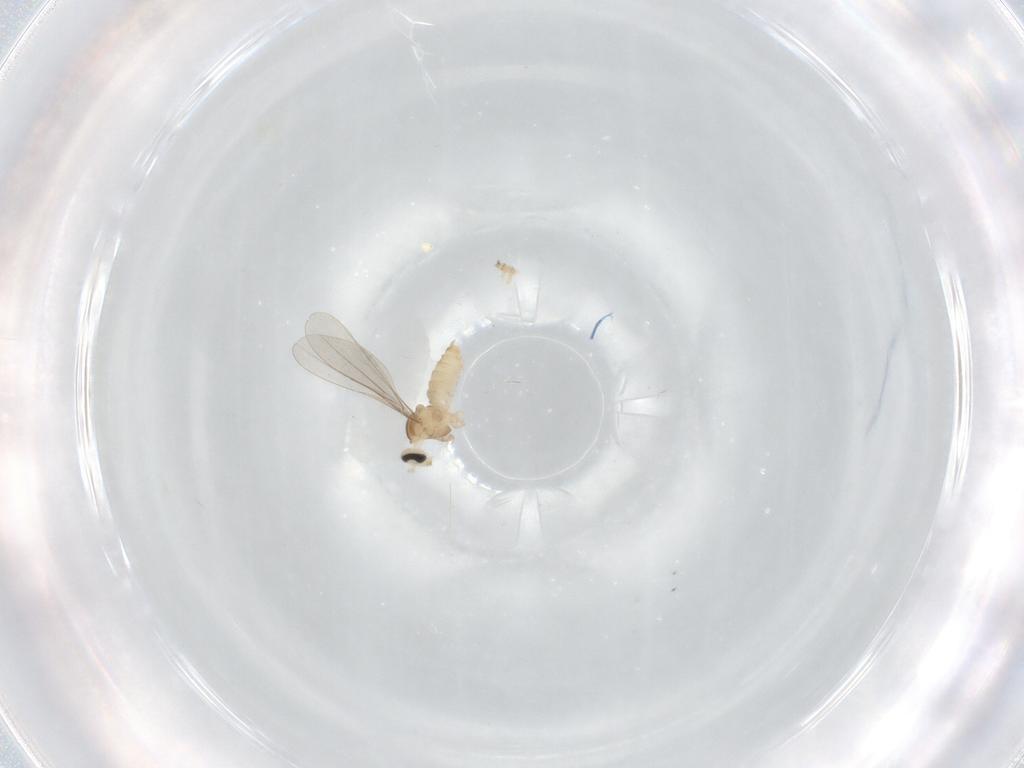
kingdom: Animalia
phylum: Arthropoda
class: Insecta
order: Diptera
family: Cecidomyiidae
